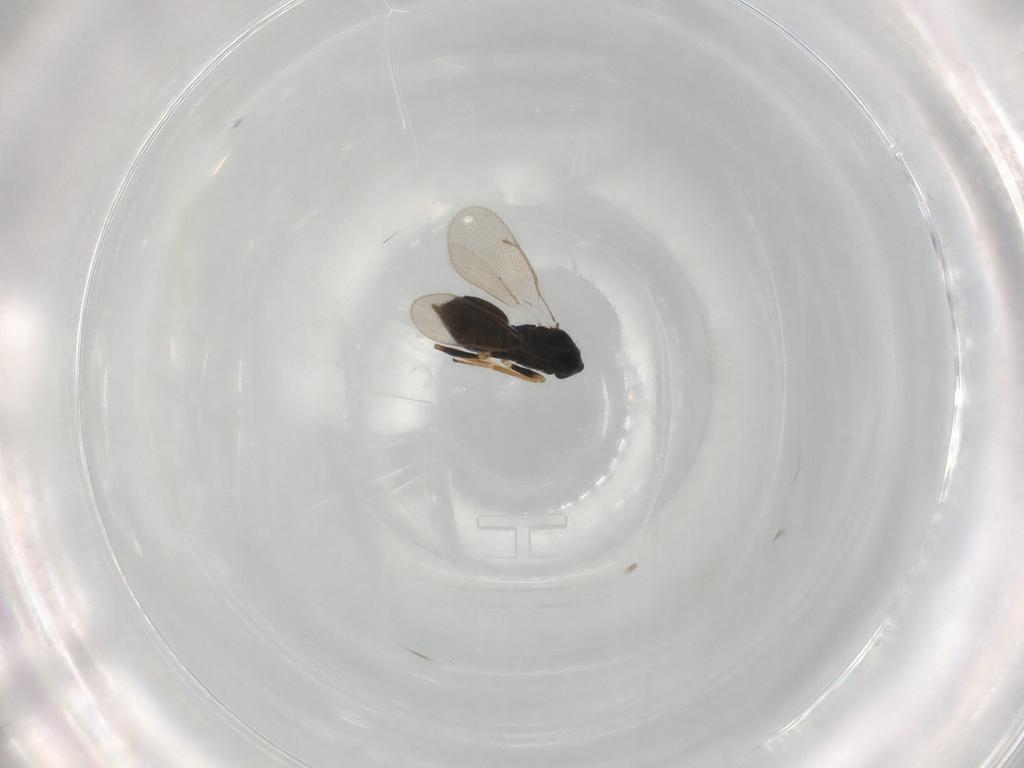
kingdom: Animalia
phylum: Arthropoda
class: Insecta
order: Hymenoptera
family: Eulophidae
